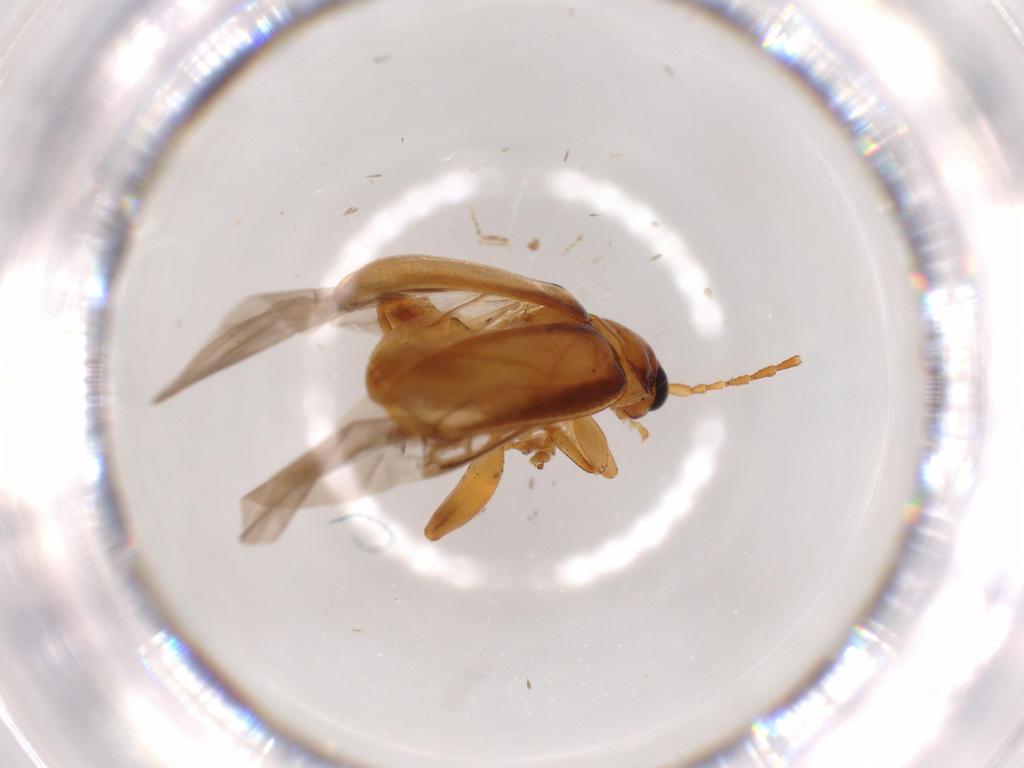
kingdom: Animalia
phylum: Arthropoda
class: Insecta
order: Coleoptera
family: Chrysomelidae
